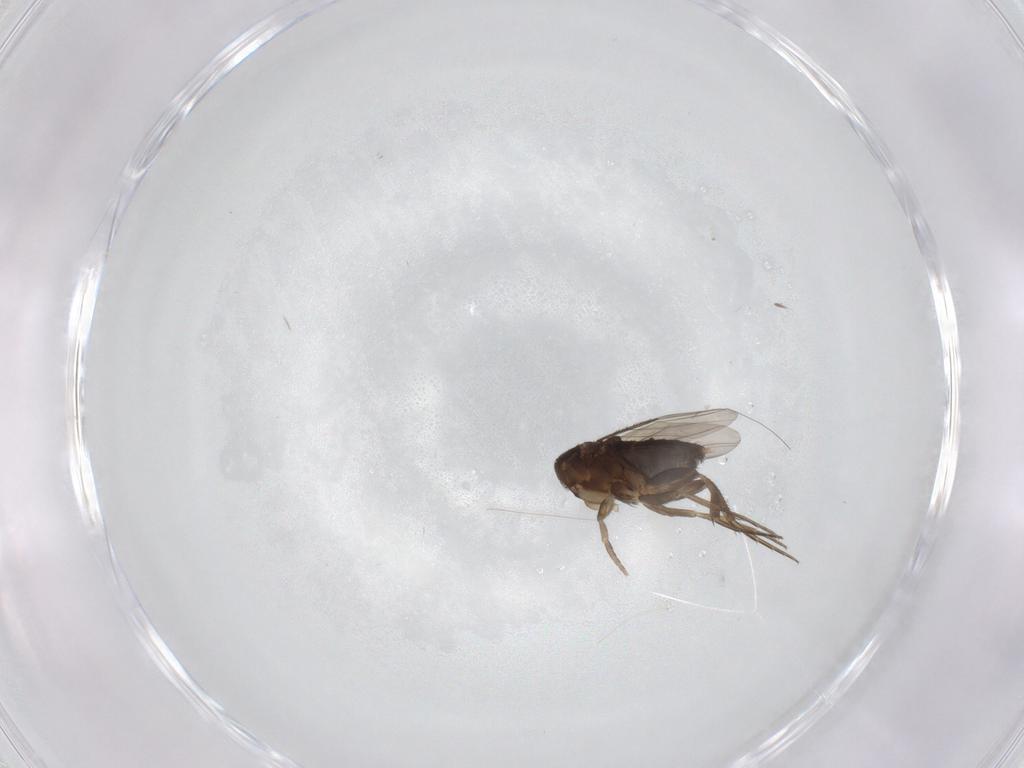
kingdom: Animalia
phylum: Arthropoda
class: Insecta
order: Diptera
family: Phoridae
